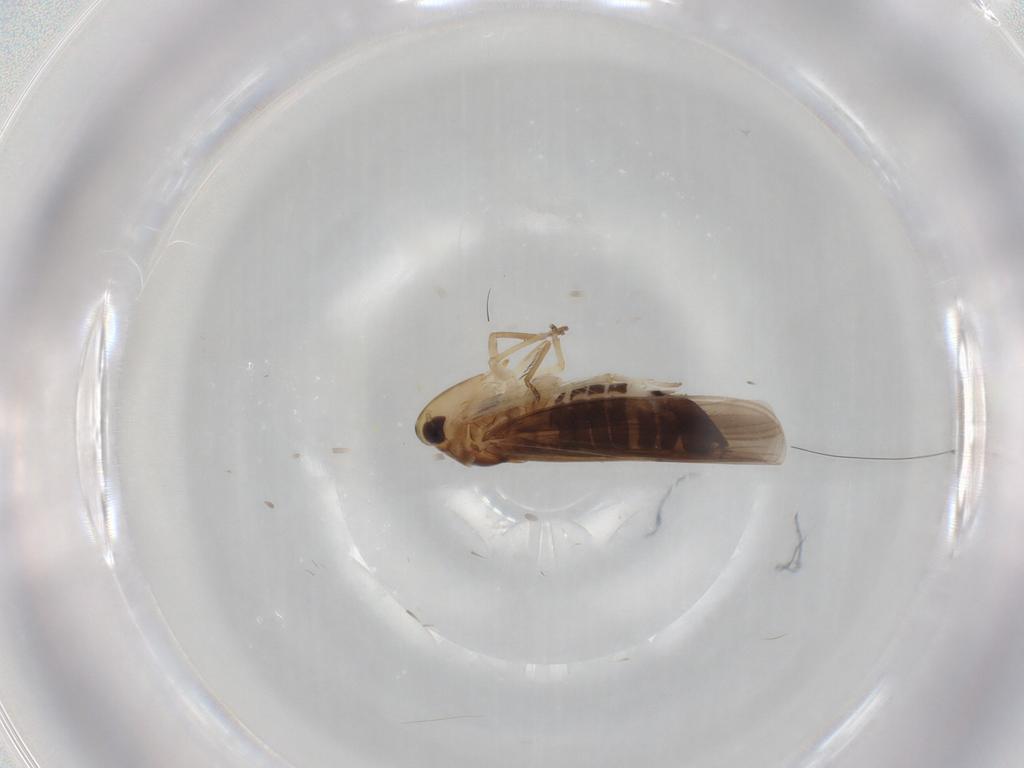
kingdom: Animalia
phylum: Arthropoda
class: Insecta
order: Hemiptera
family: Cicadellidae
